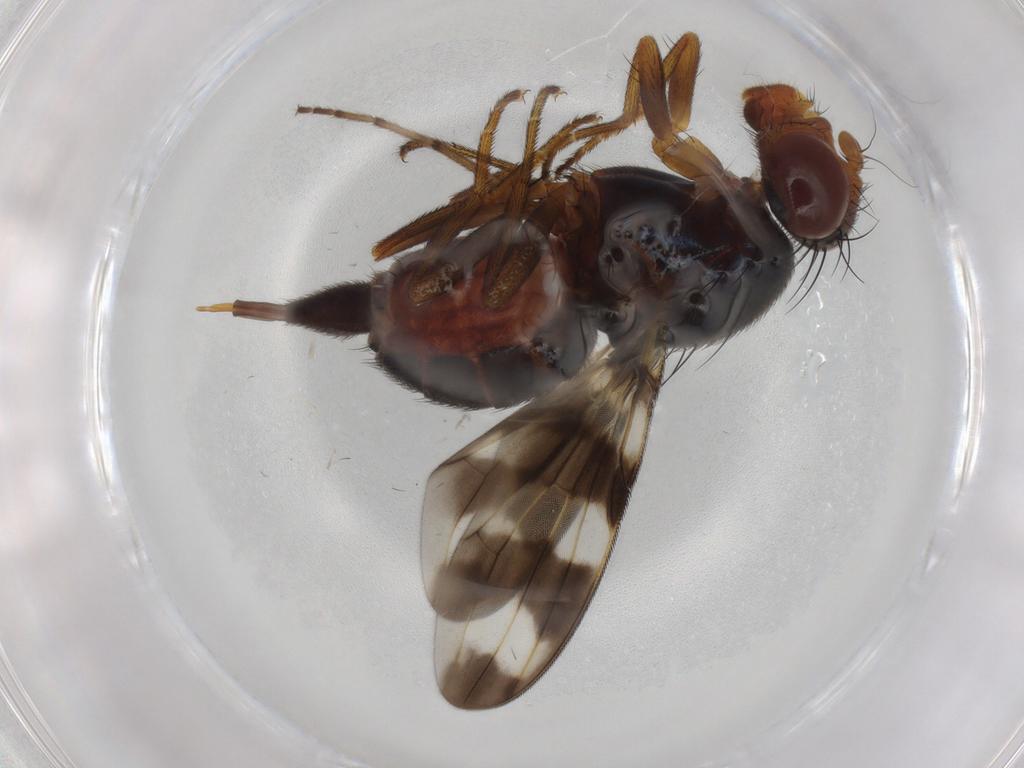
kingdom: Animalia
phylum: Arthropoda
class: Insecta
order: Diptera
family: Ulidiidae
